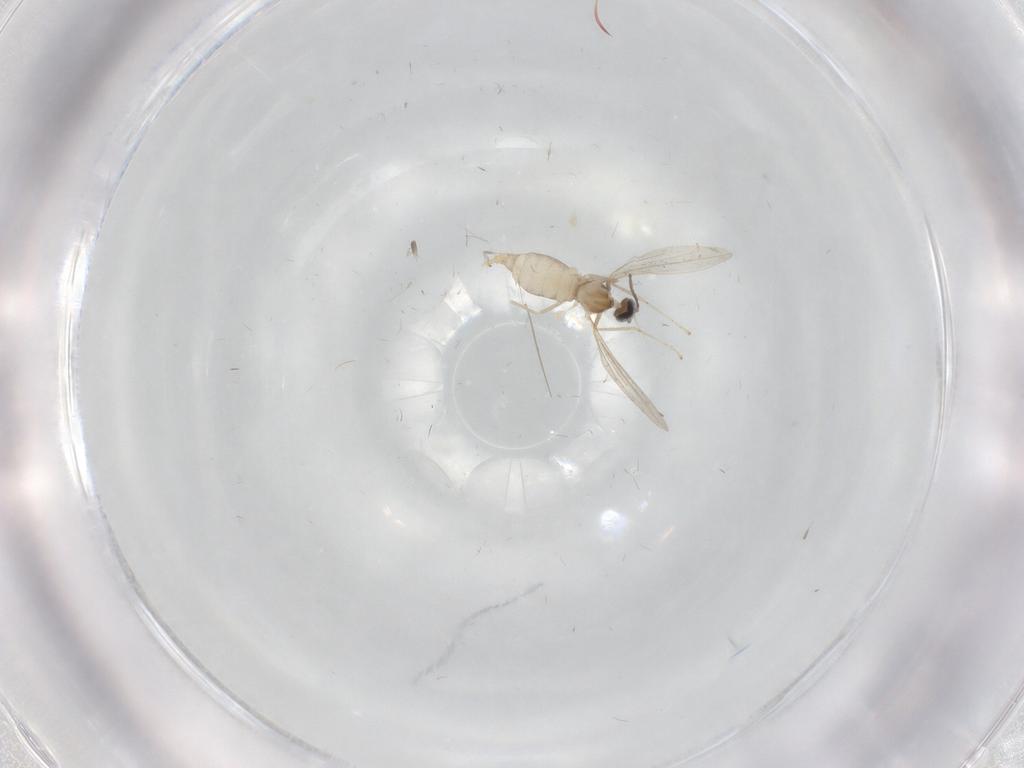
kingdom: Animalia
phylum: Arthropoda
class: Insecta
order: Diptera
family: Cecidomyiidae
